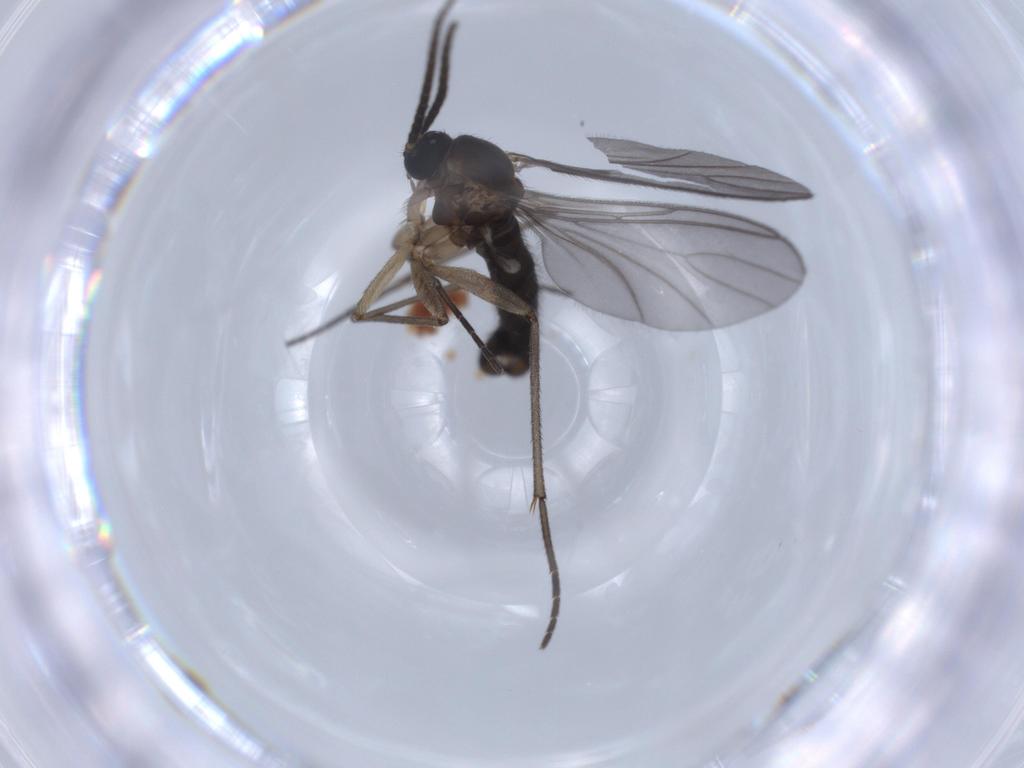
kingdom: Animalia
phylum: Arthropoda
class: Insecta
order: Diptera
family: Sciaridae
